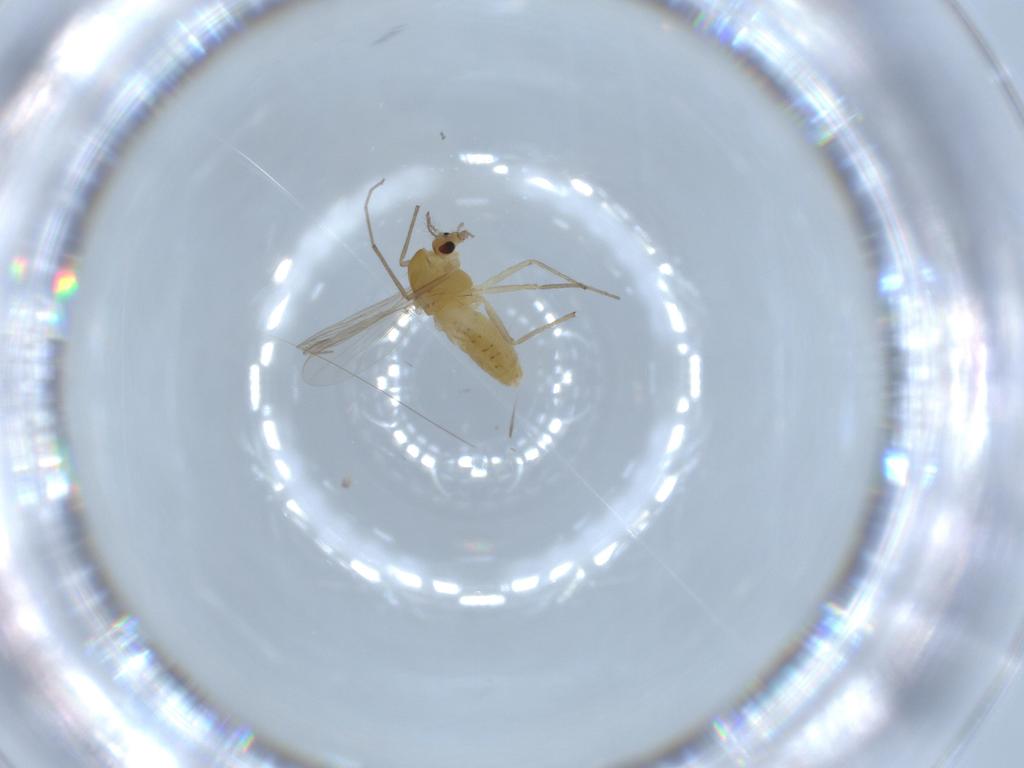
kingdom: Animalia
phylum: Arthropoda
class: Insecta
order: Diptera
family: Chironomidae
